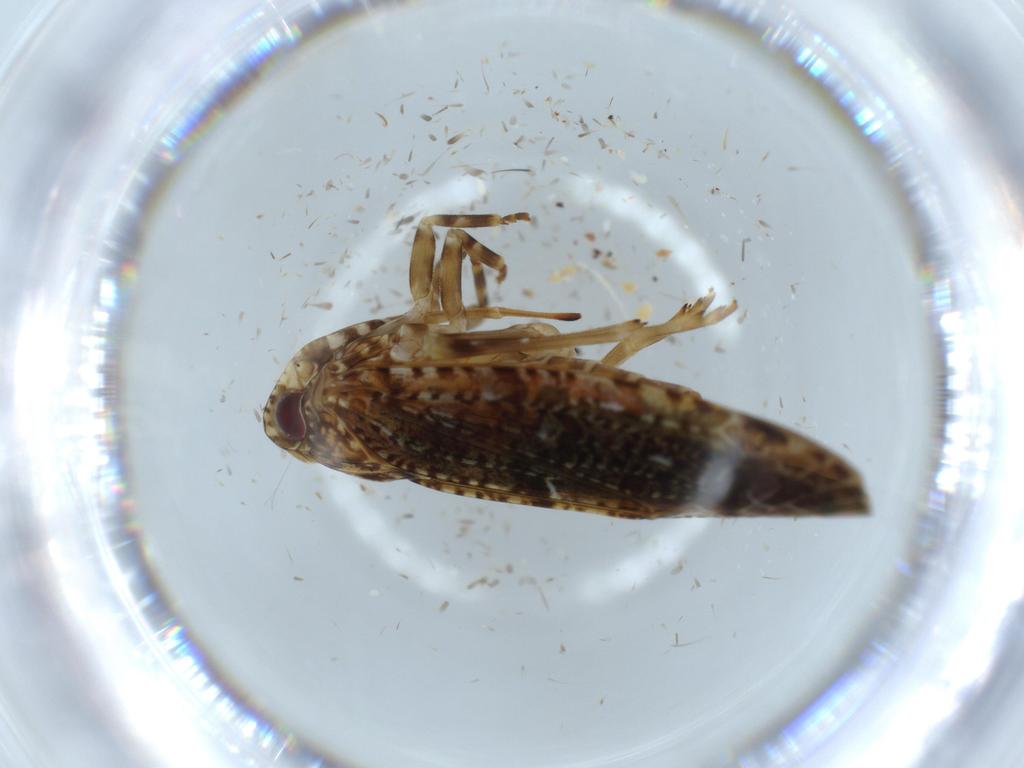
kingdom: Animalia
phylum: Arthropoda
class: Insecta
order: Hemiptera
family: Achilidae
